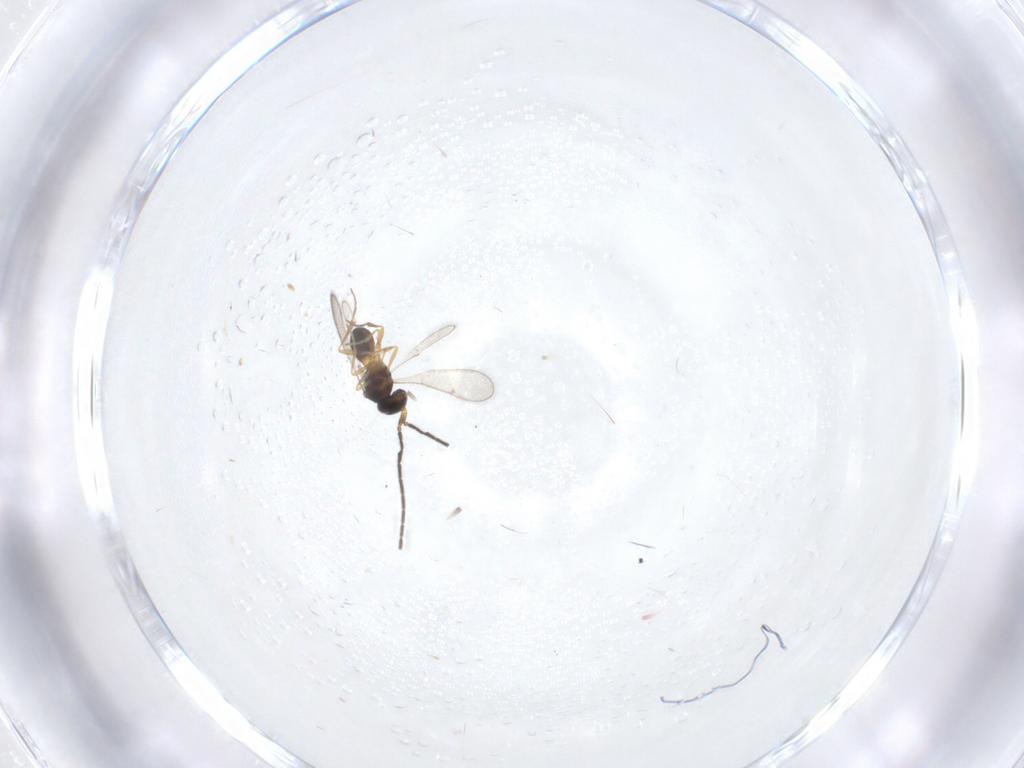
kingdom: Animalia
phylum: Arthropoda
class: Insecta
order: Hymenoptera
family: Scelionidae
